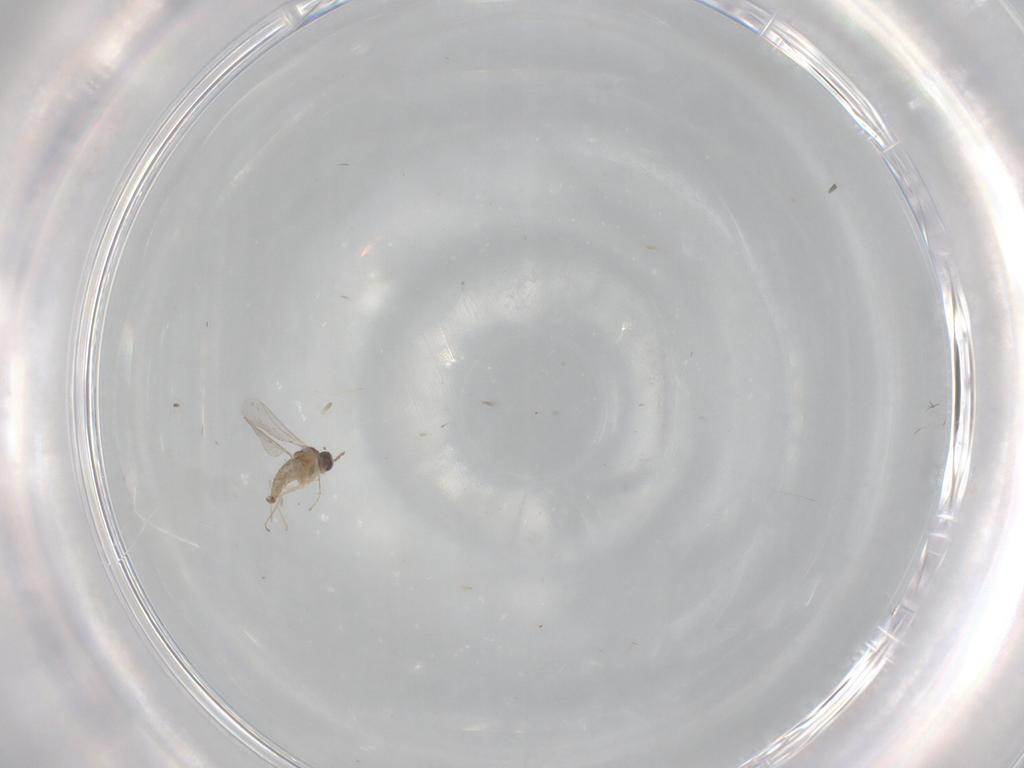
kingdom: Animalia
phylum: Arthropoda
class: Insecta
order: Diptera
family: Cecidomyiidae
